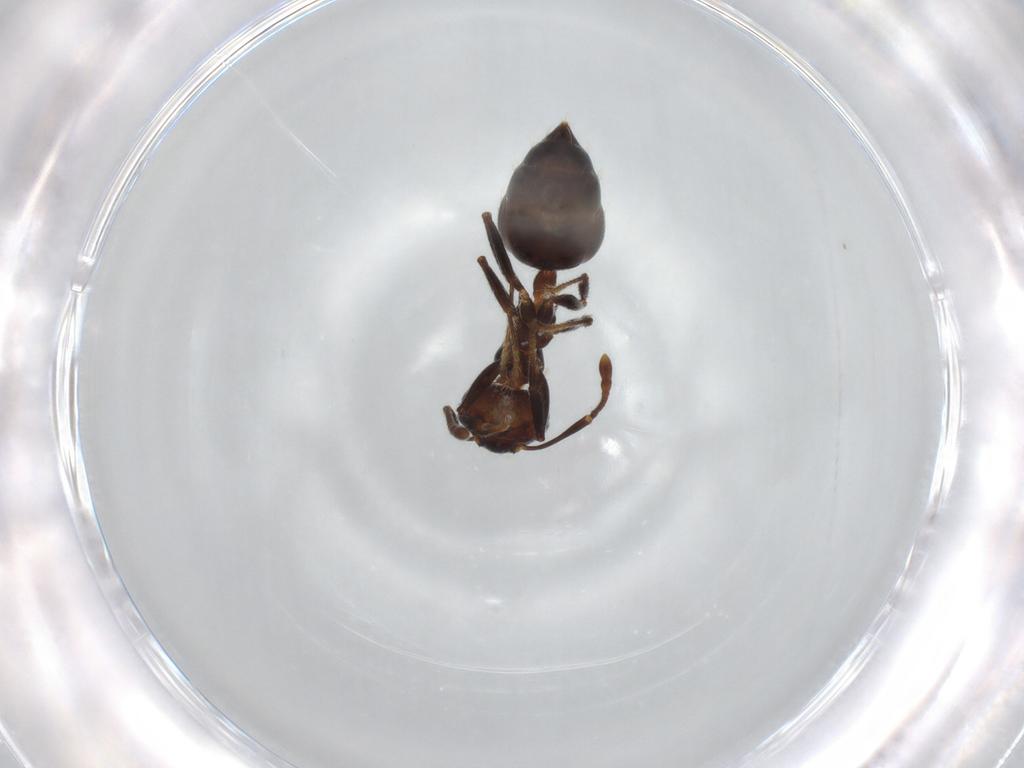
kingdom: Animalia
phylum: Arthropoda
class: Insecta
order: Hymenoptera
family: Formicidae
